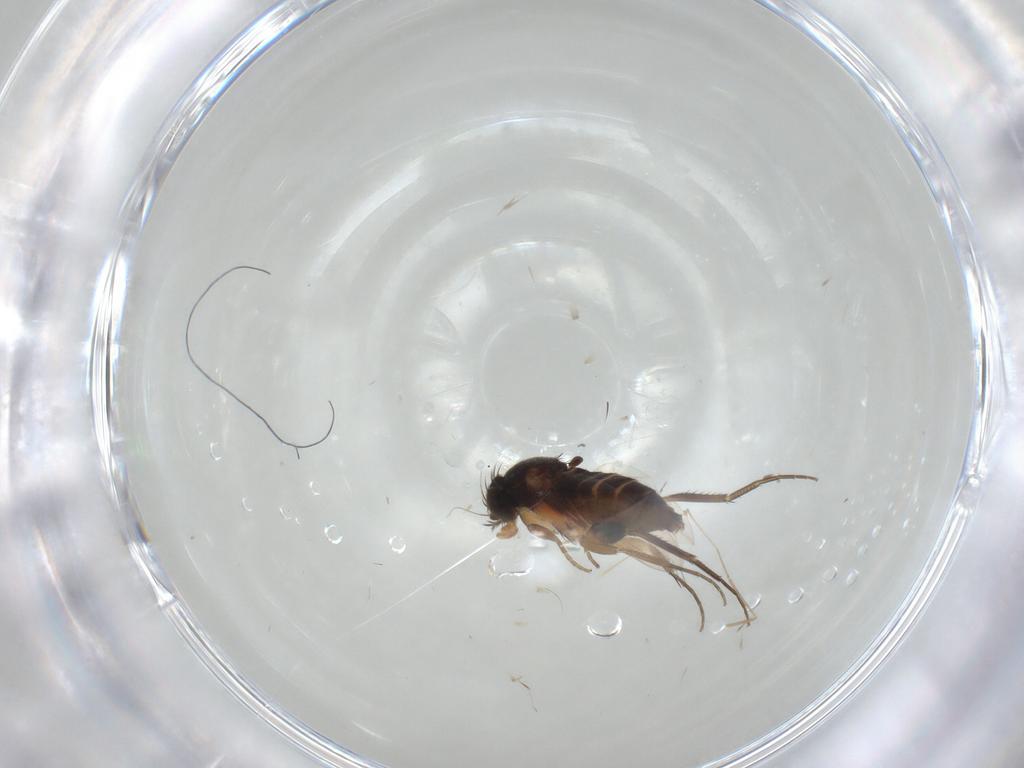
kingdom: Animalia
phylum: Arthropoda
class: Insecta
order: Diptera
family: Phoridae
